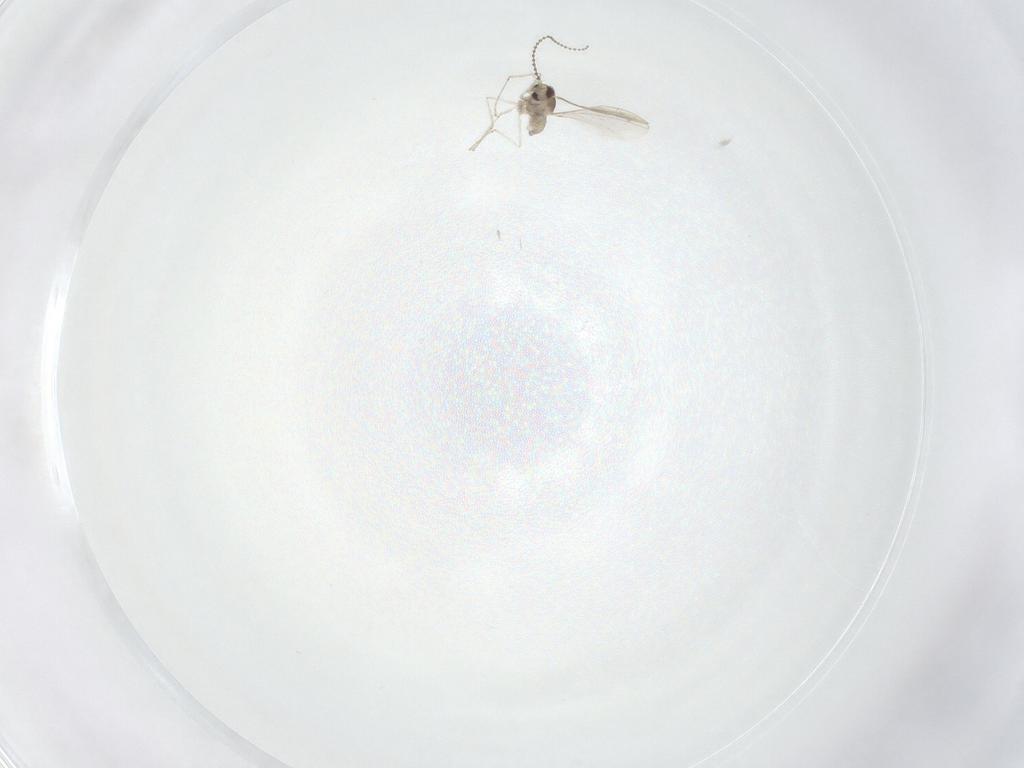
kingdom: Animalia
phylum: Arthropoda
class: Insecta
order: Diptera
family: Cecidomyiidae
